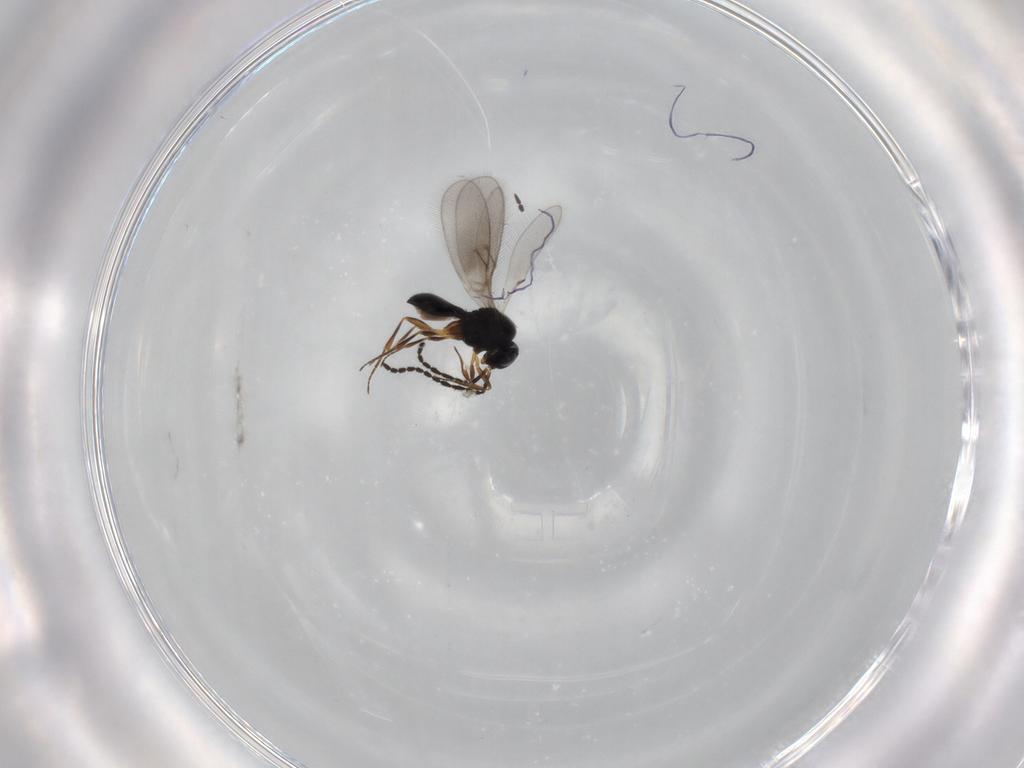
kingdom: Animalia
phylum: Arthropoda
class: Insecta
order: Hymenoptera
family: Scelionidae
